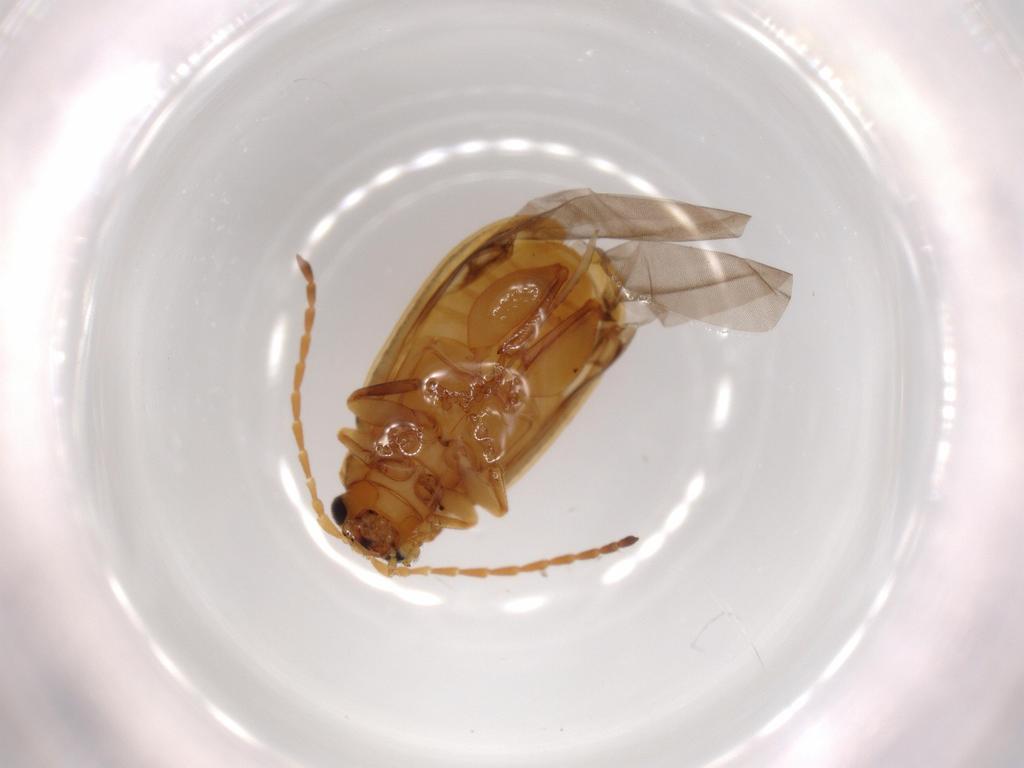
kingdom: Animalia
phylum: Arthropoda
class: Insecta
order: Coleoptera
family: Chrysomelidae
